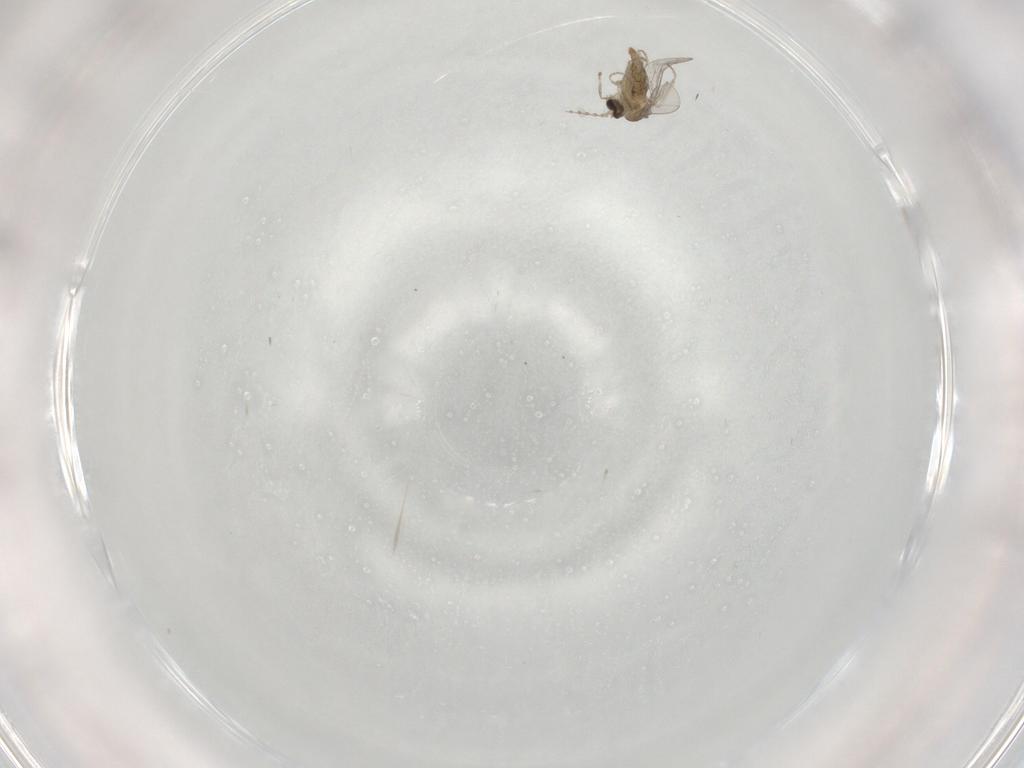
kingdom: Animalia
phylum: Arthropoda
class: Insecta
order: Diptera
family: Cecidomyiidae
